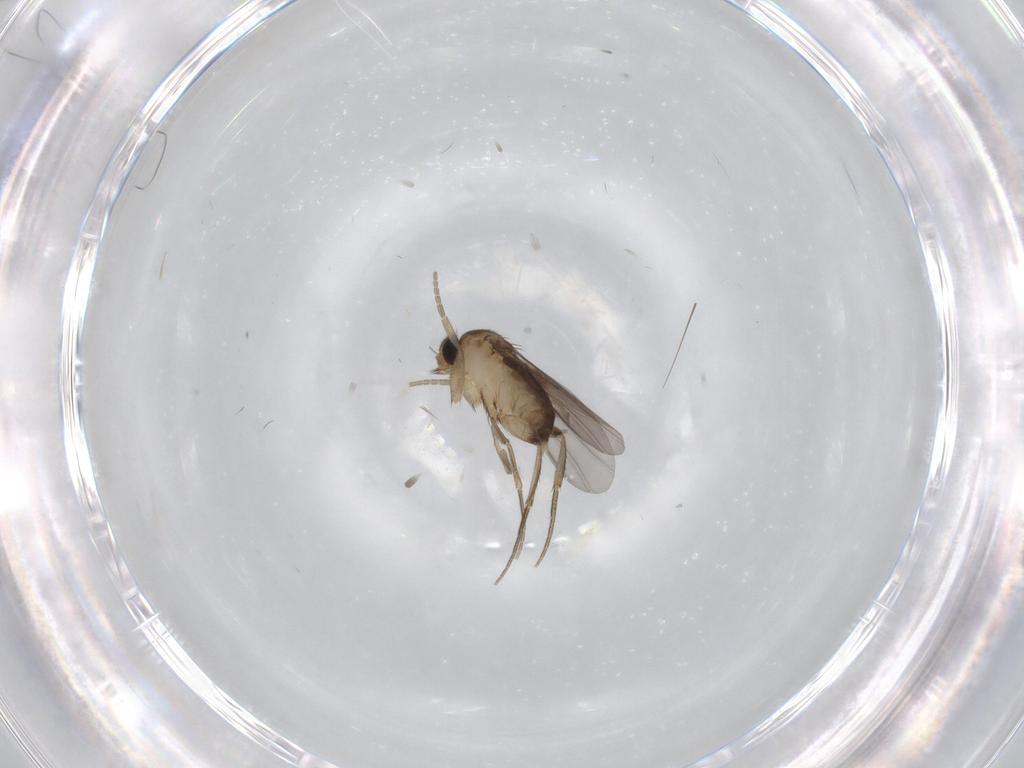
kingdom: Animalia
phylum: Arthropoda
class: Insecta
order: Diptera
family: Phoridae
